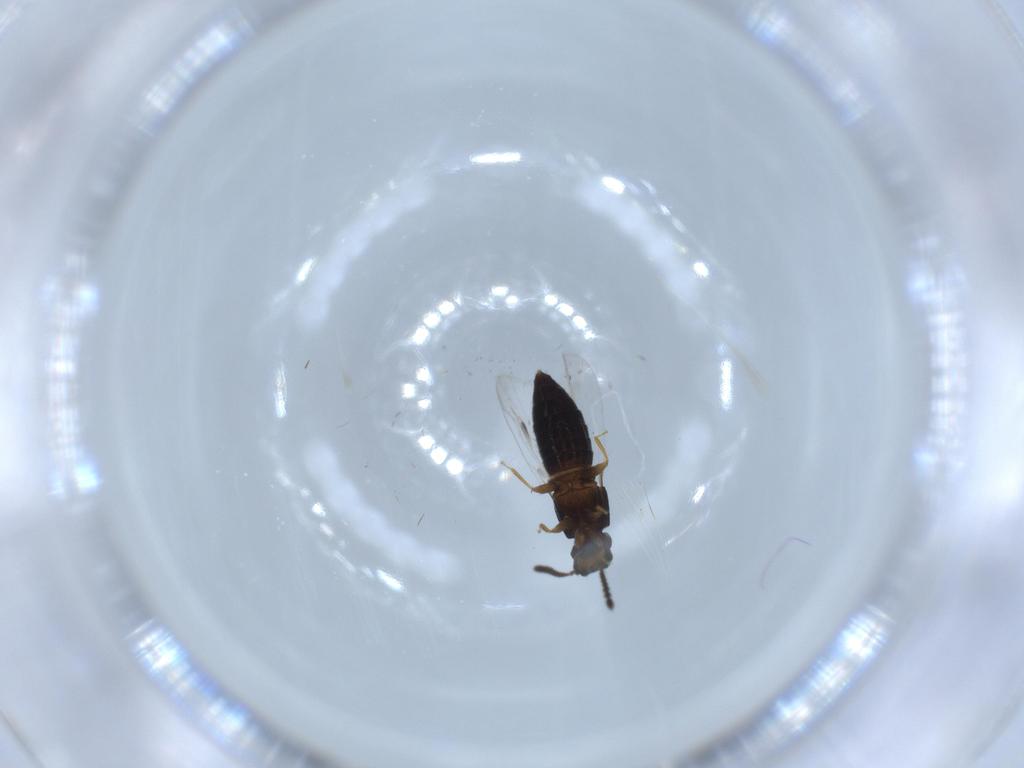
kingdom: Animalia
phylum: Arthropoda
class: Insecta
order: Coleoptera
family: Staphylinidae
